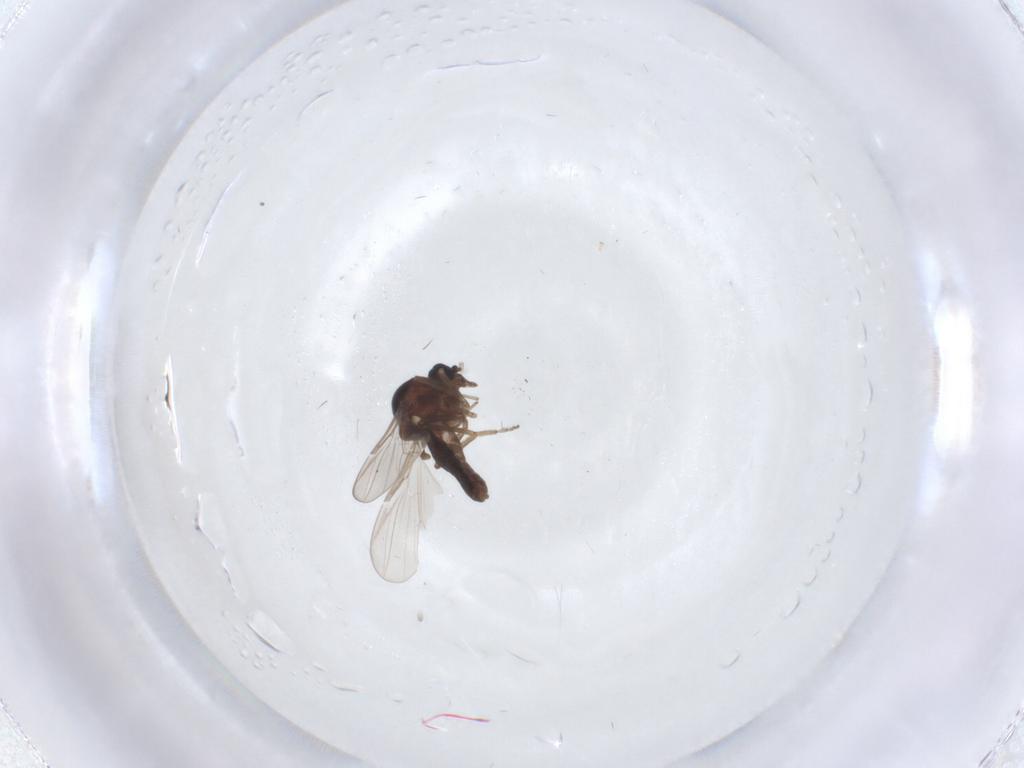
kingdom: Animalia
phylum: Arthropoda
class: Insecta
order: Diptera
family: Ceratopogonidae
